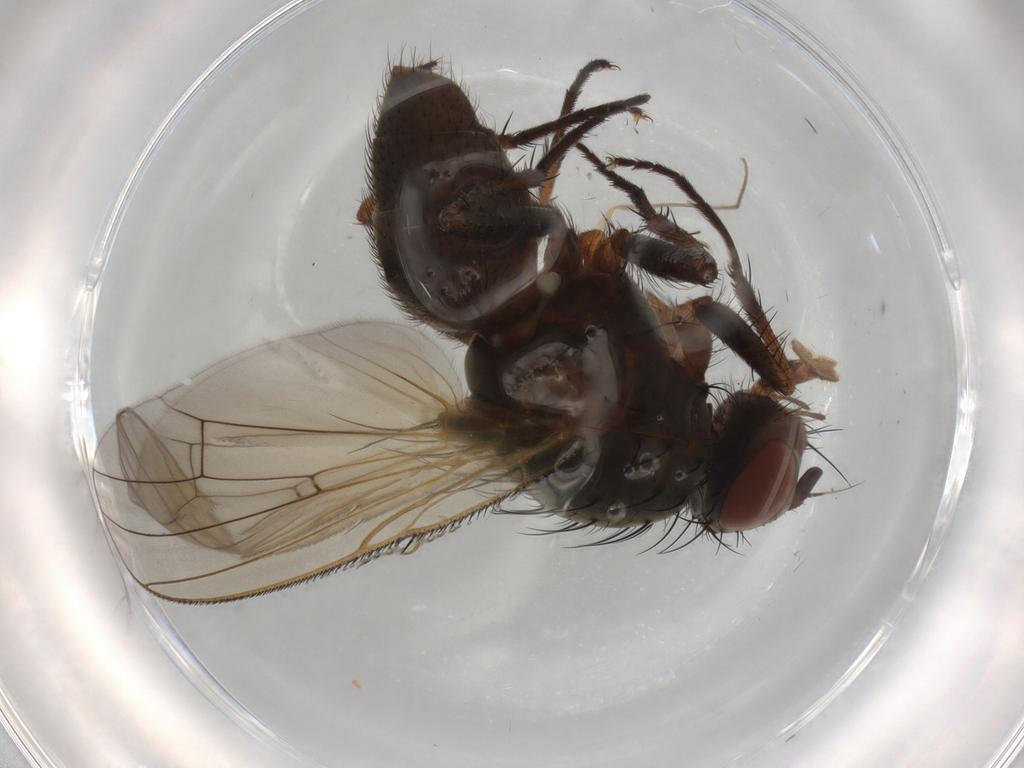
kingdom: Animalia
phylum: Arthropoda
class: Insecta
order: Diptera
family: Anthomyiidae
